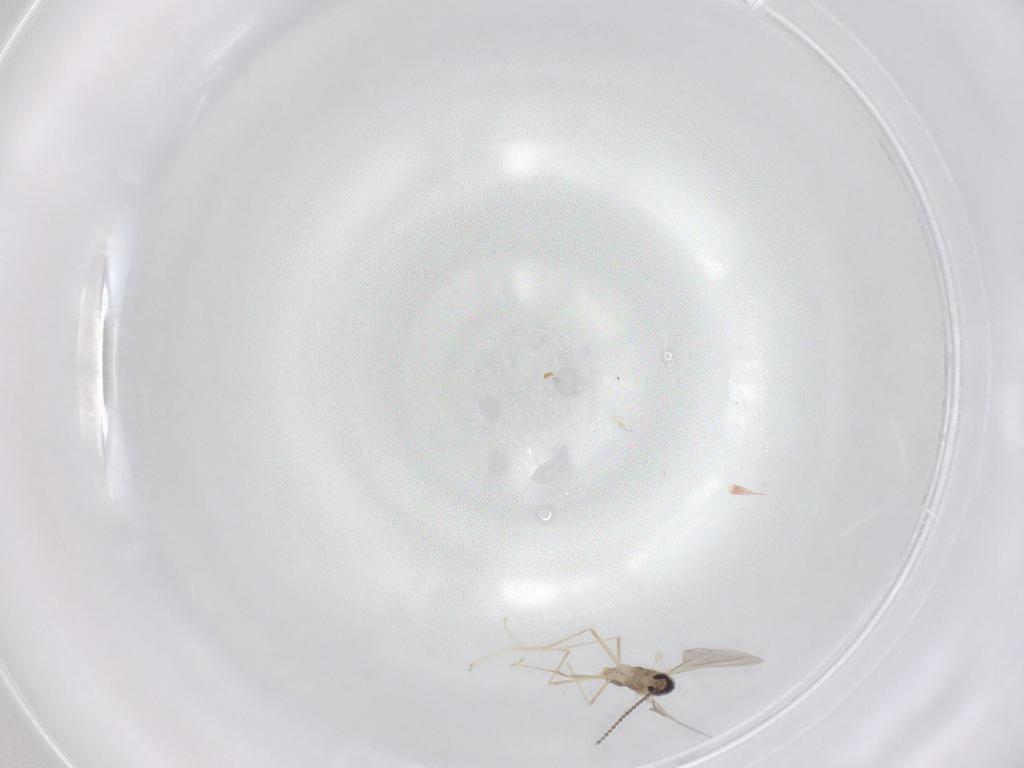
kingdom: Animalia
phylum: Arthropoda
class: Insecta
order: Diptera
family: Cecidomyiidae
